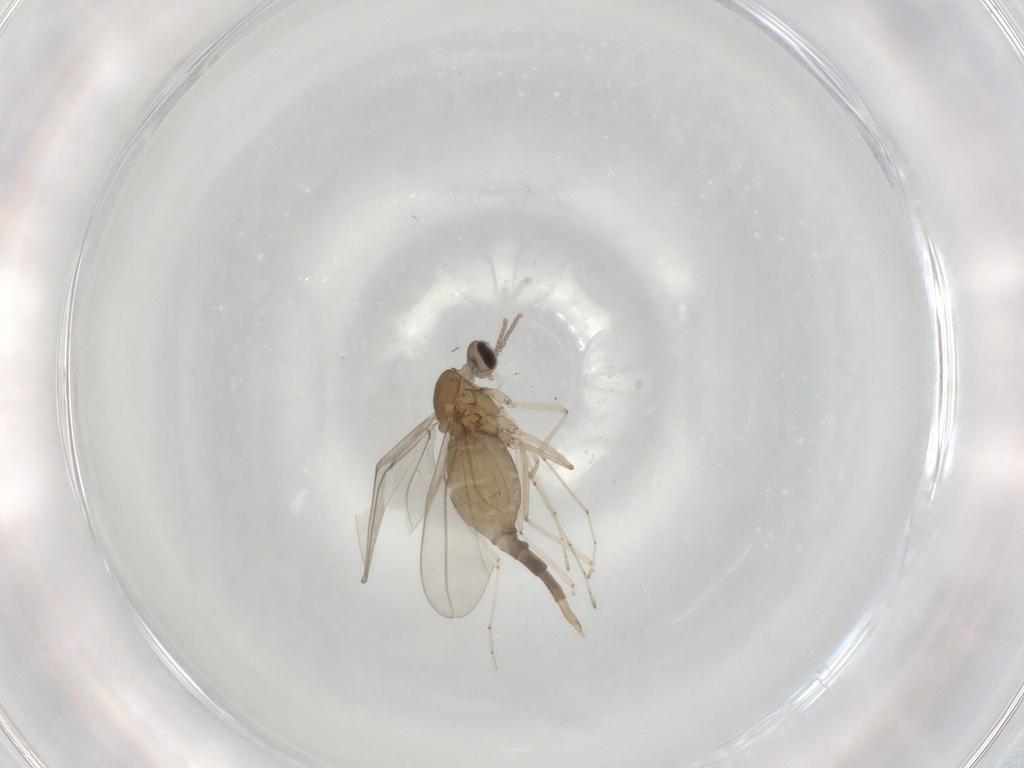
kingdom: Animalia
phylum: Arthropoda
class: Insecta
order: Diptera
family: Cecidomyiidae
